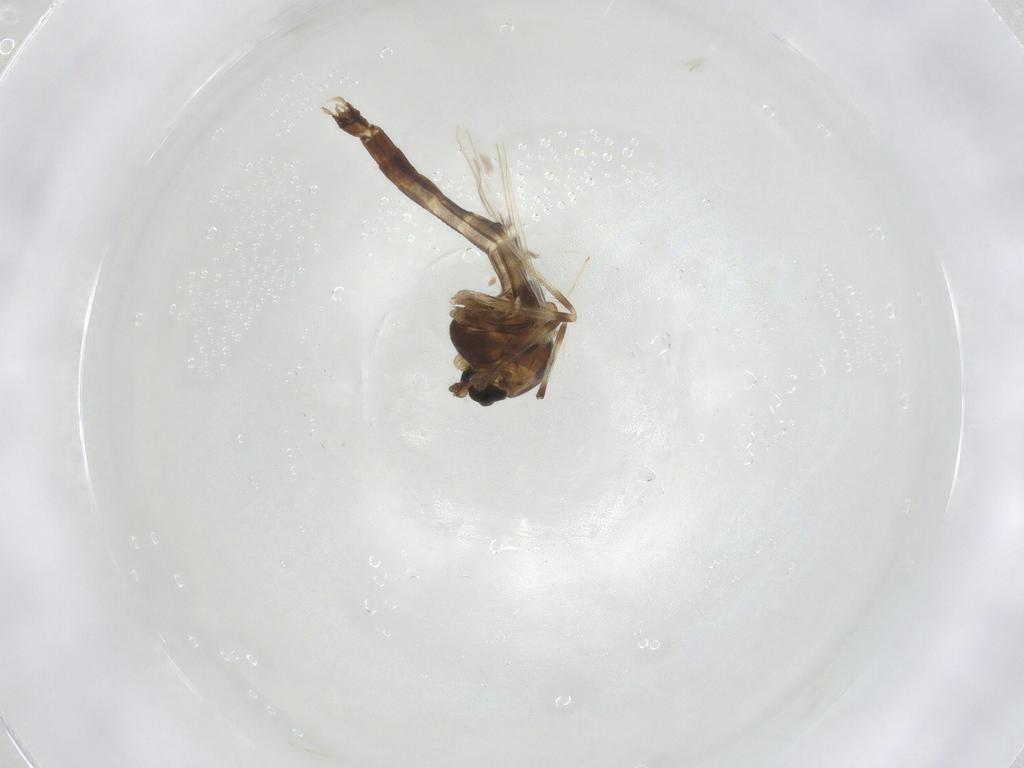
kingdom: Animalia
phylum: Arthropoda
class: Insecta
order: Diptera
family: Chironomidae
